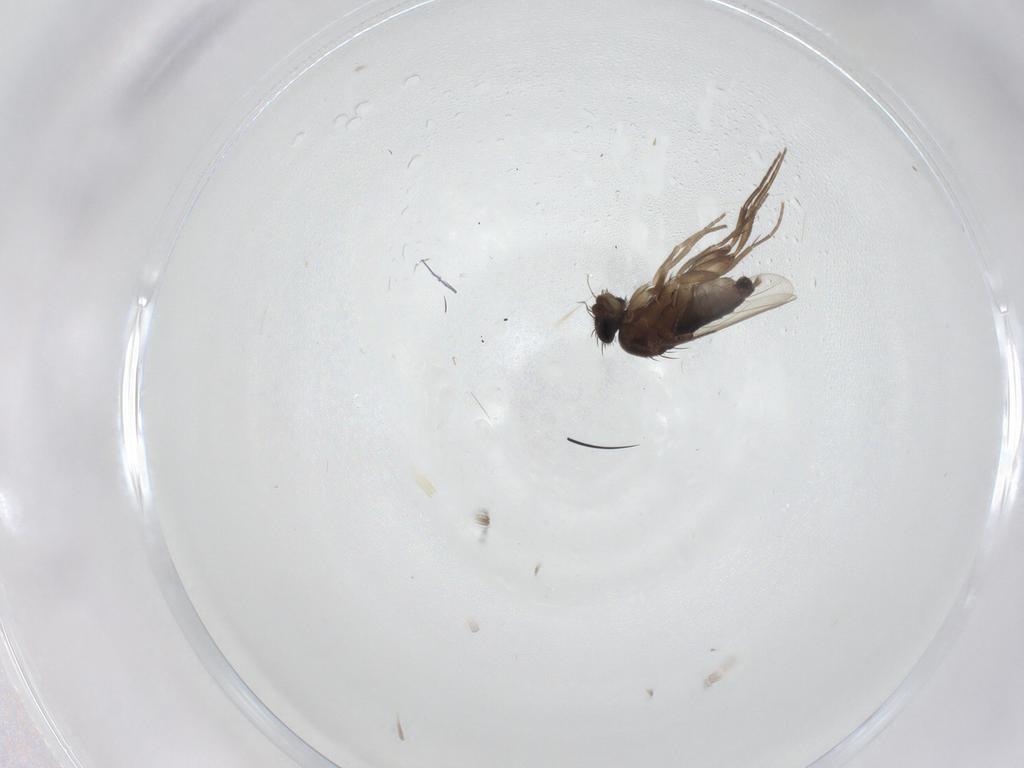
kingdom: Animalia
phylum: Arthropoda
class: Insecta
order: Diptera
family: Phoridae
